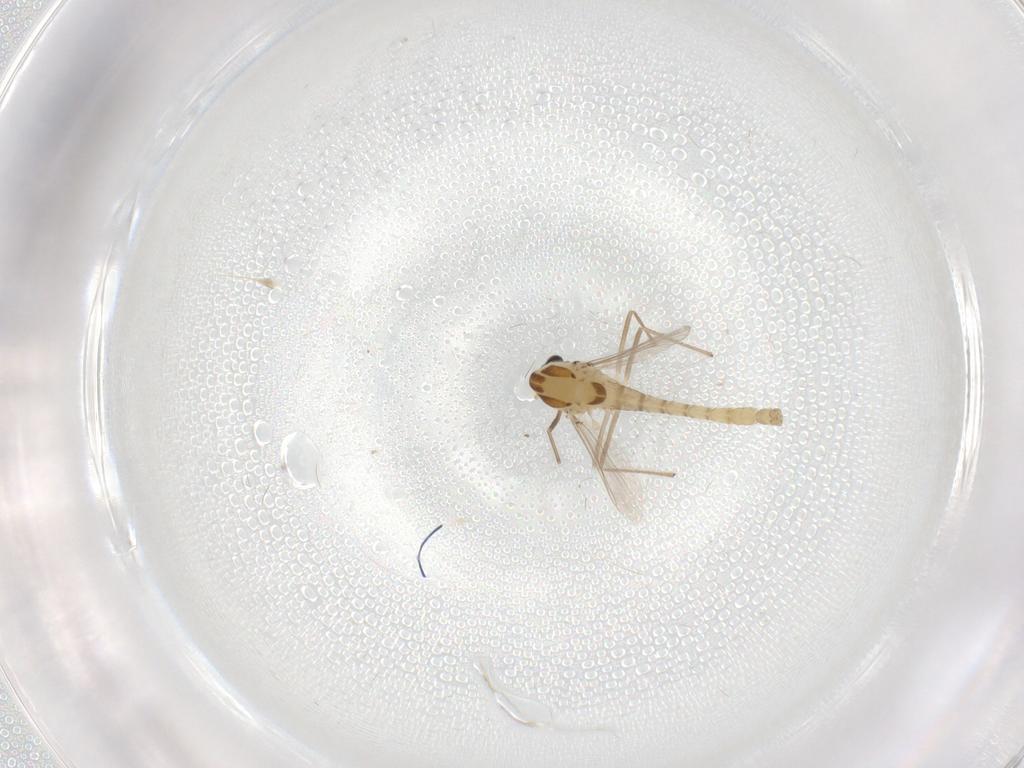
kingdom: Animalia
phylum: Arthropoda
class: Insecta
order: Diptera
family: Chironomidae
